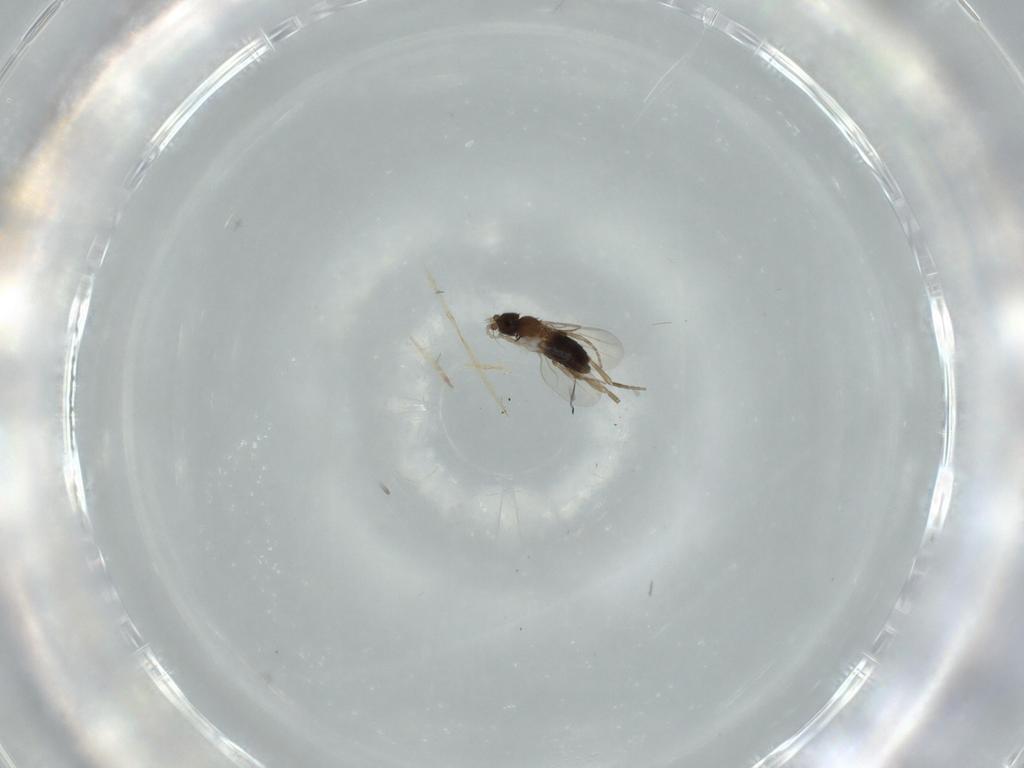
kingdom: Animalia
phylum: Arthropoda
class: Insecta
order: Diptera
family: Phoridae
